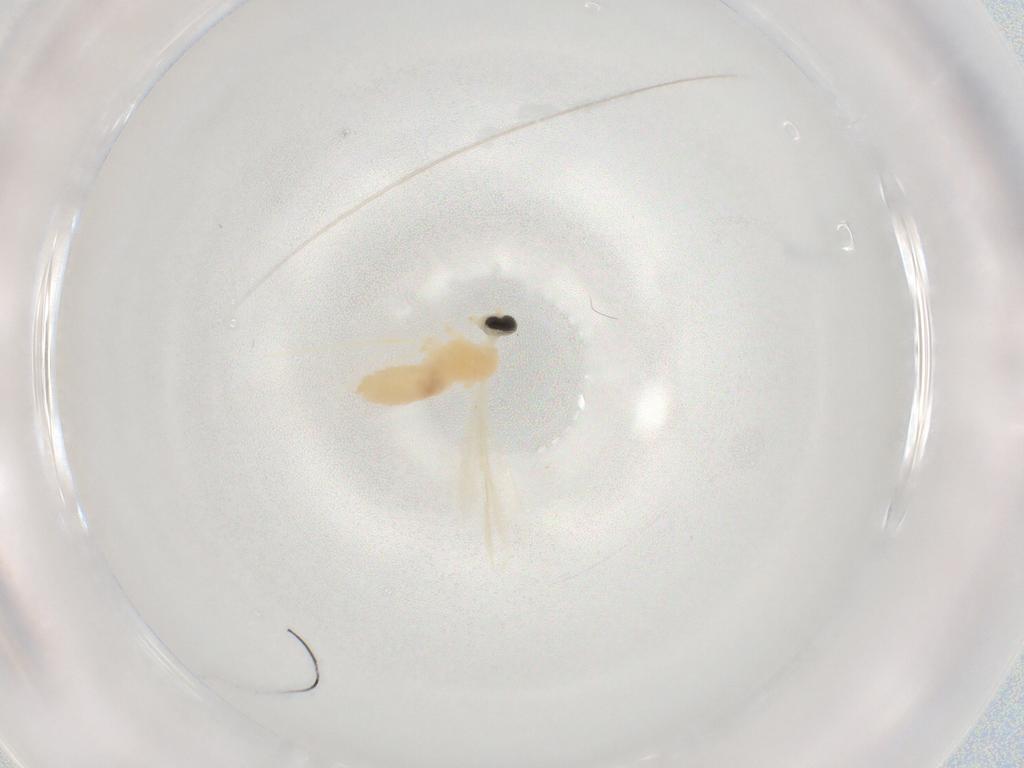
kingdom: Animalia
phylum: Arthropoda
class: Insecta
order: Diptera
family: Cecidomyiidae
